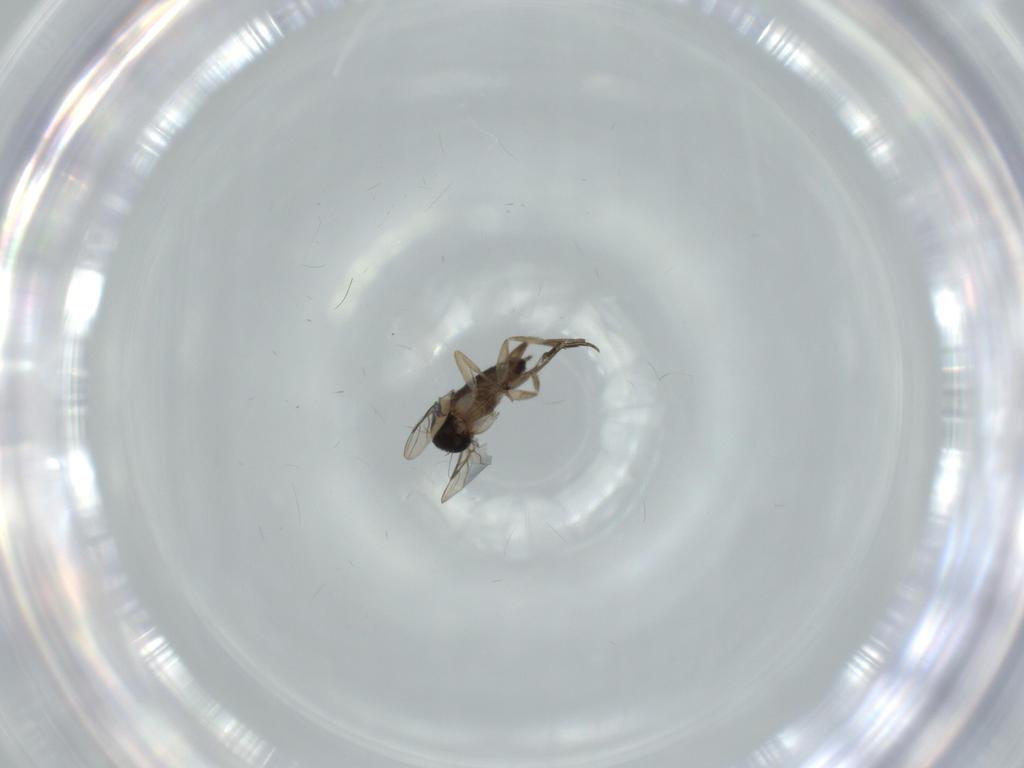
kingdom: Animalia
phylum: Arthropoda
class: Insecta
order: Diptera
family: Phoridae
